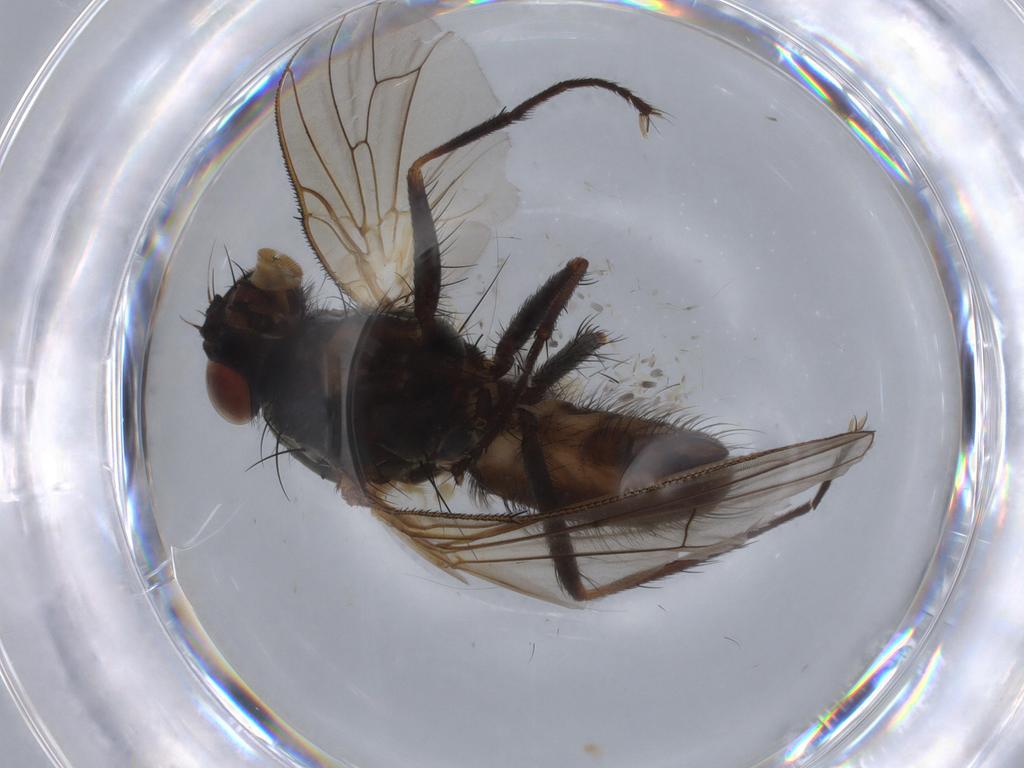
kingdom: Animalia
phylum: Arthropoda
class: Insecta
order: Diptera
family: Anthomyiidae
